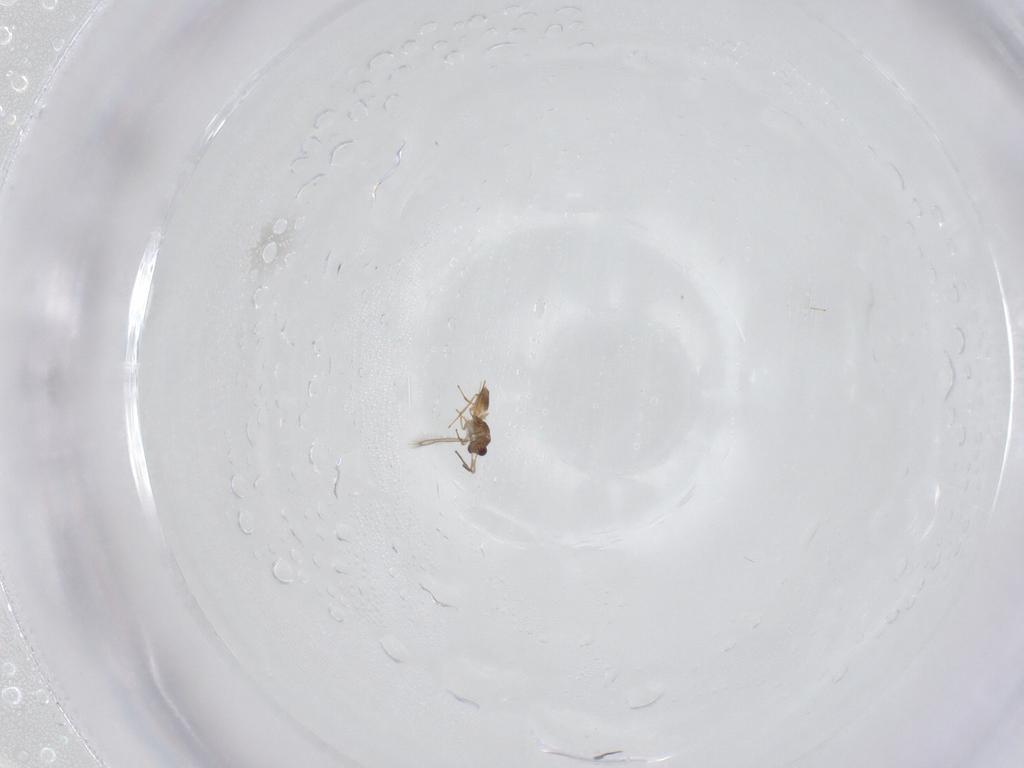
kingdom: Animalia
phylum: Arthropoda
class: Insecta
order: Hymenoptera
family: Mymaridae
